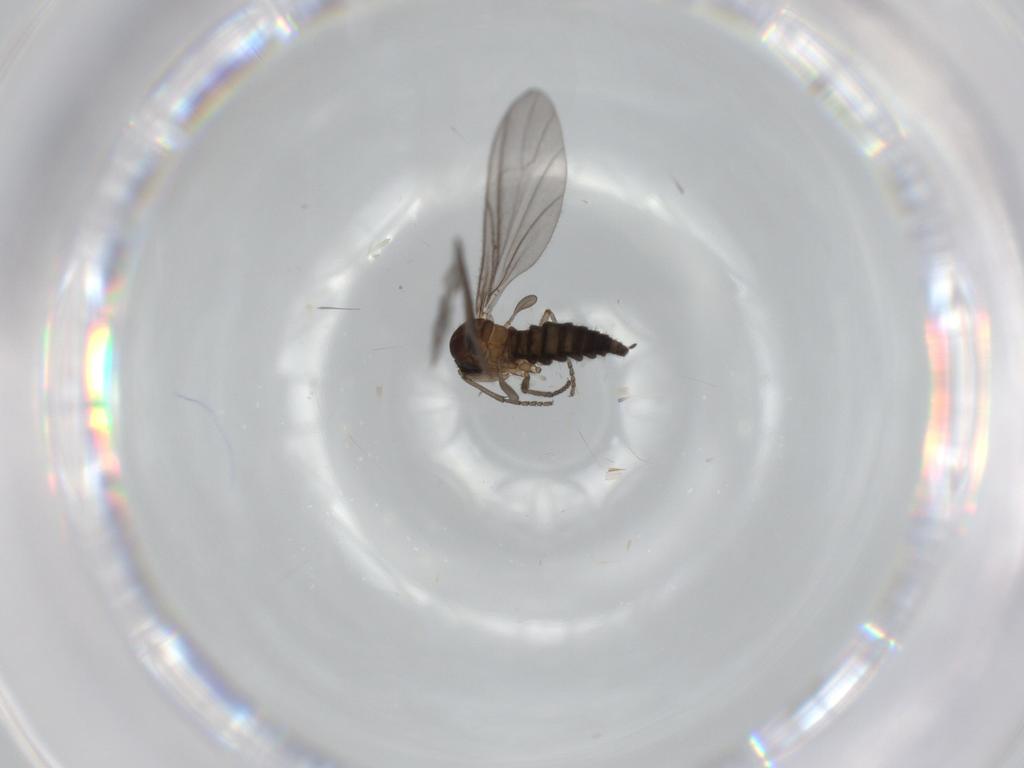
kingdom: Animalia
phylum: Arthropoda
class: Insecta
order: Diptera
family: Sciaridae
